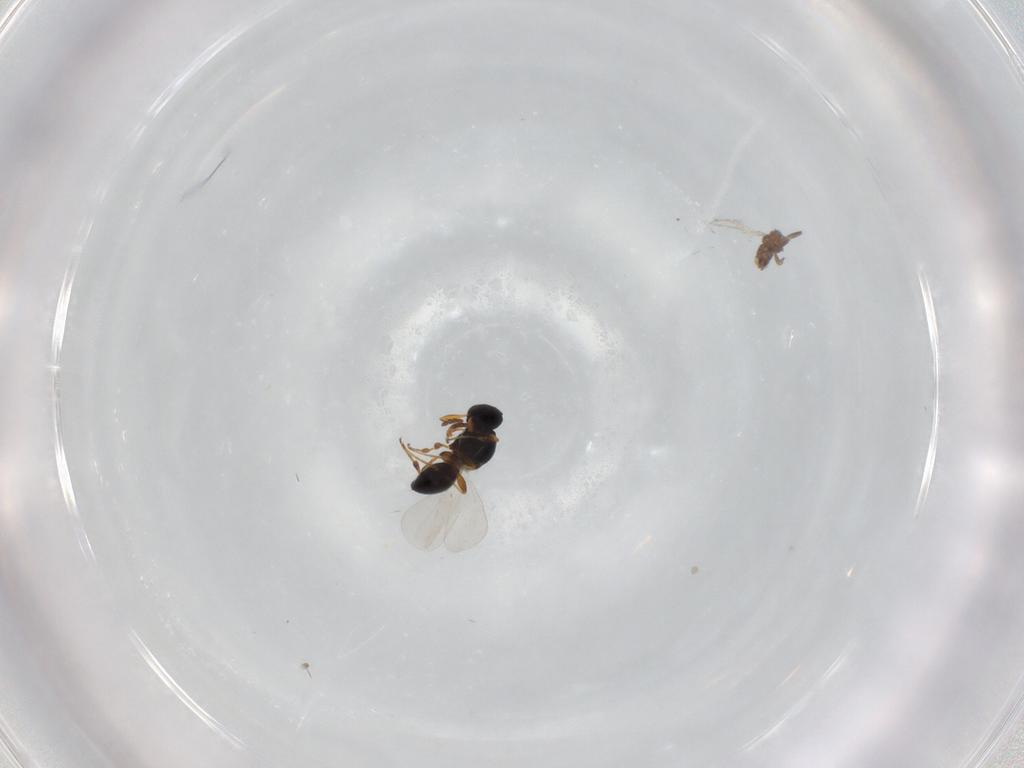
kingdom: Animalia
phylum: Arthropoda
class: Insecta
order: Hymenoptera
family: Platygastridae
